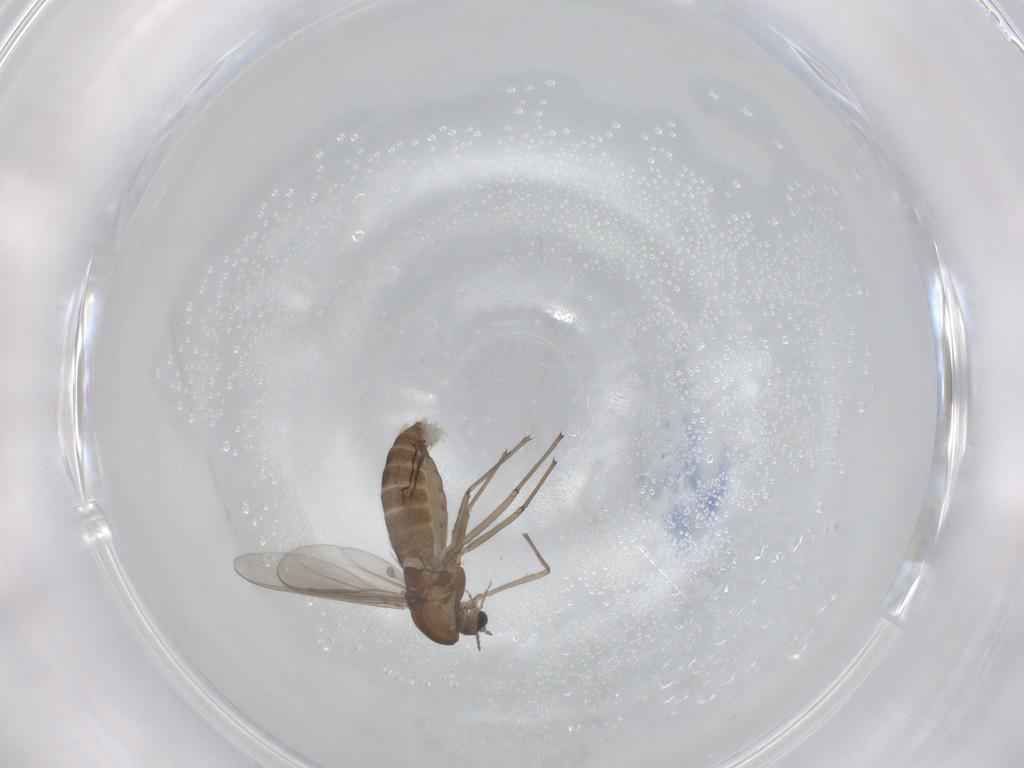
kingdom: Animalia
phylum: Arthropoda
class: Insecta
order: Diptera
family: Chironomidae
